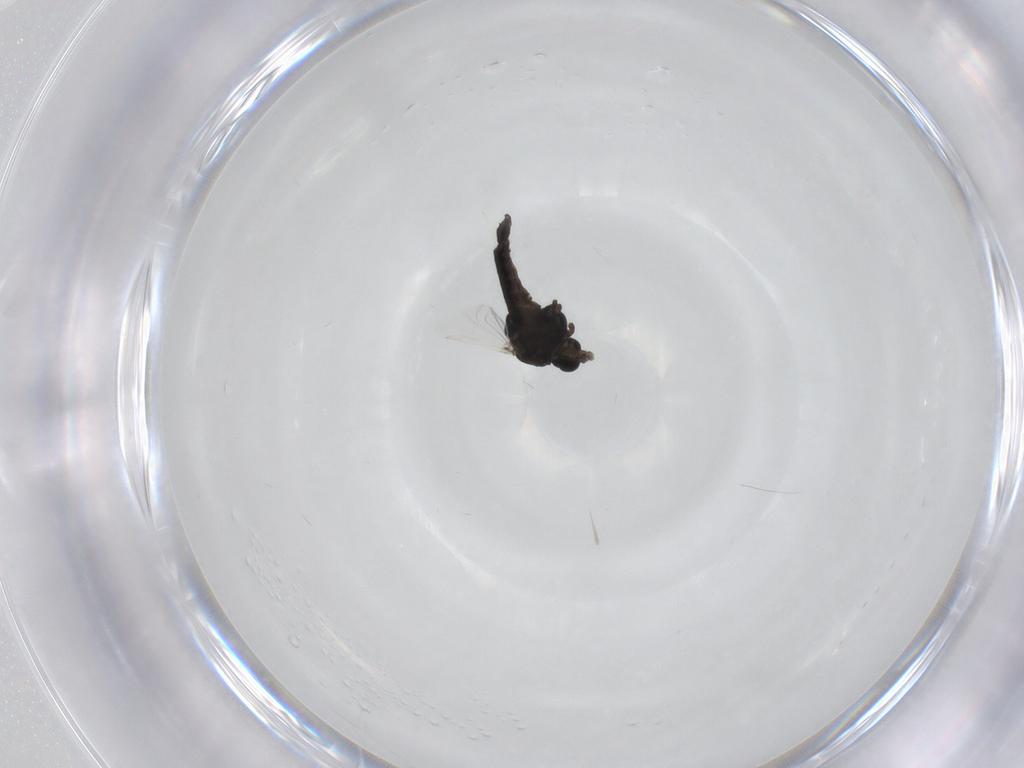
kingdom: Animalia
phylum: Arthropoda
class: Insecta
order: Diptera
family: Chironomidae
